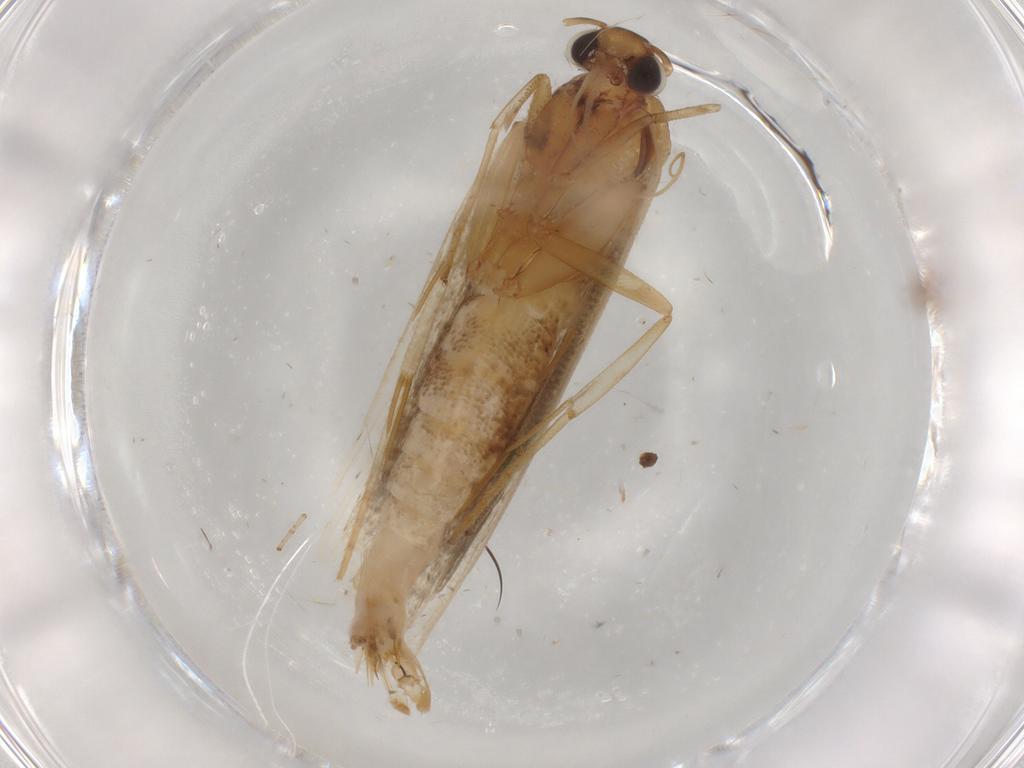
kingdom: Animalia
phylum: Arthropoda
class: Insecta
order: Lepidoptera
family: Gelechiidae
